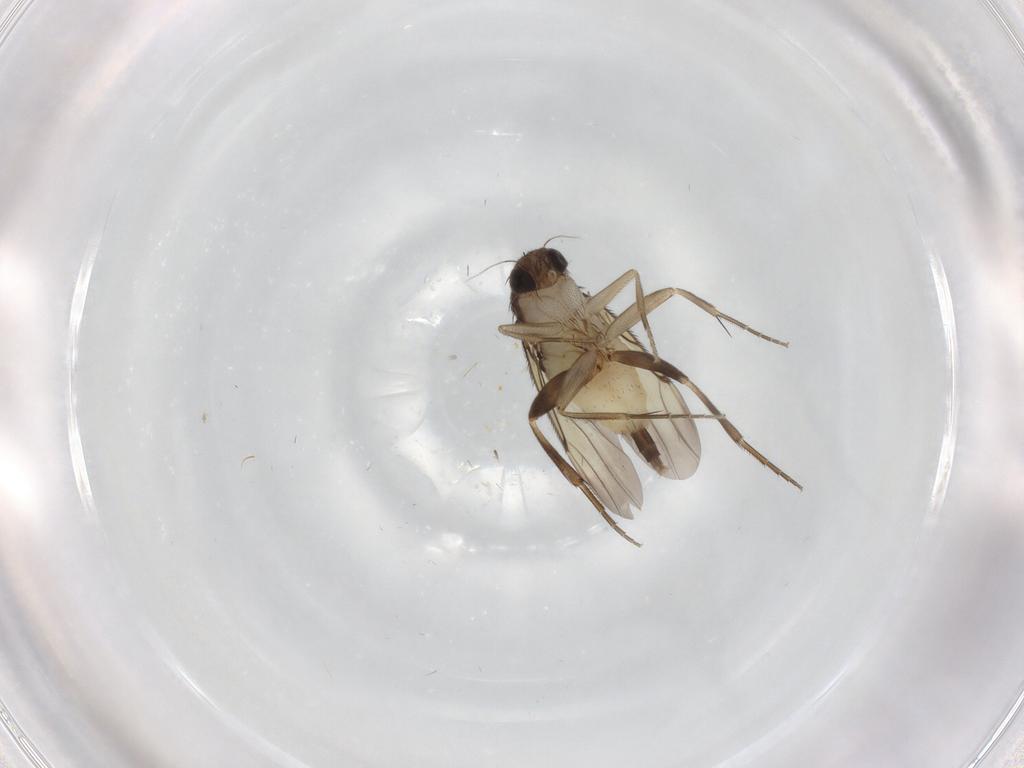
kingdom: Animalia
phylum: Arthropoda
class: Insecta
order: Diptera
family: Phoridae
